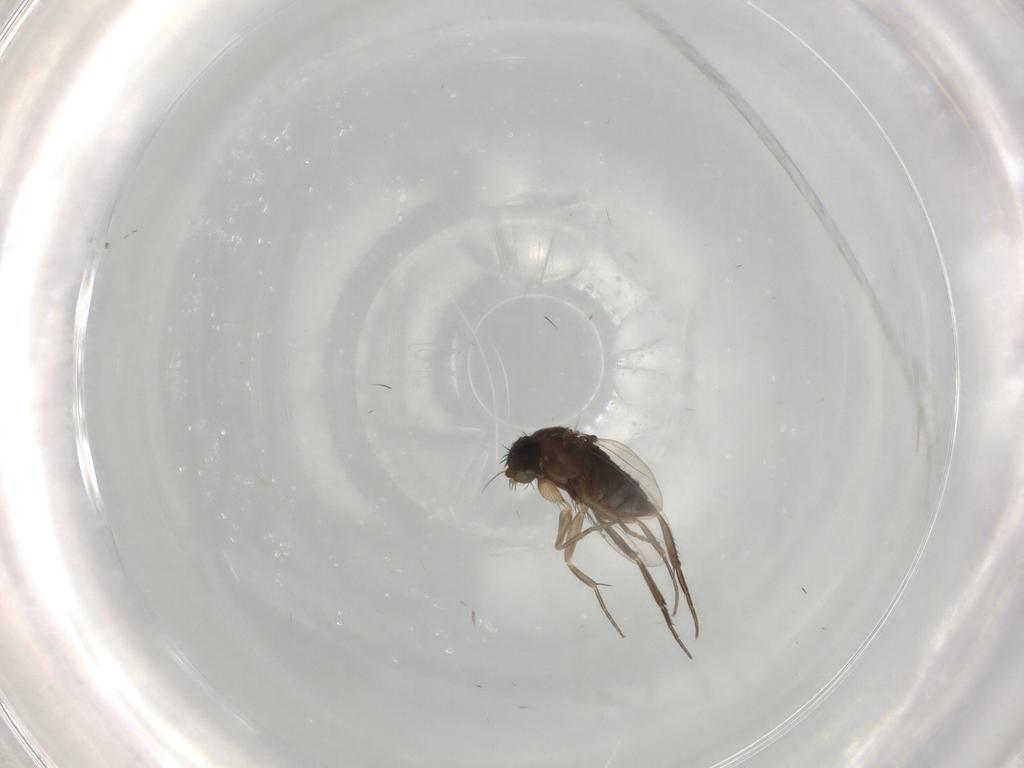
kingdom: Animalia
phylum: Arthropoda
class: Insecta
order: Diptera
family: Phoridae
